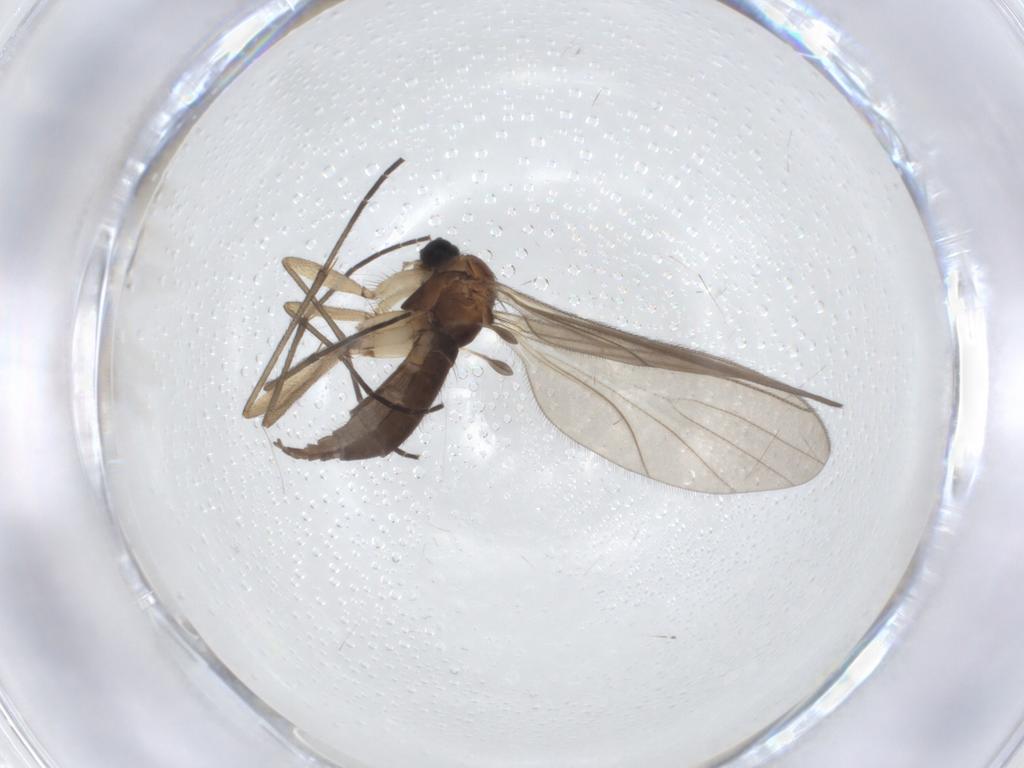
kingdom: Animalia
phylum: Arthropoda
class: Insecta
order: Diptera
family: Sciaridae
